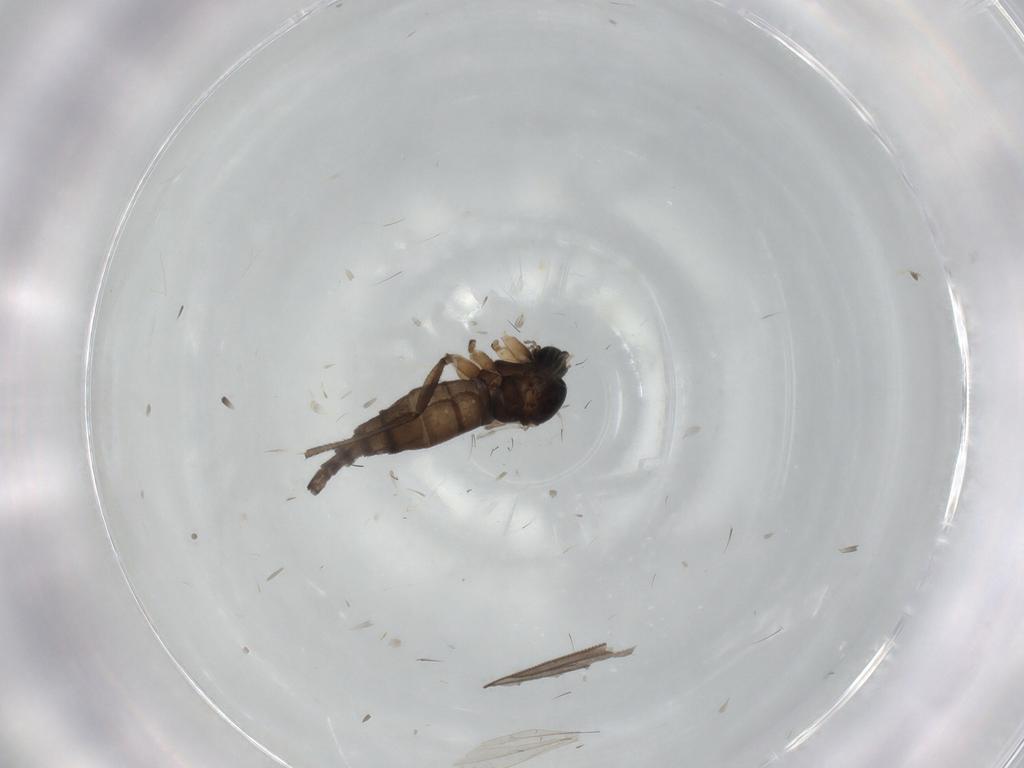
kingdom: Animalia
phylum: Arthropoda
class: Insecta
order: Diptera
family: Sciaridae
